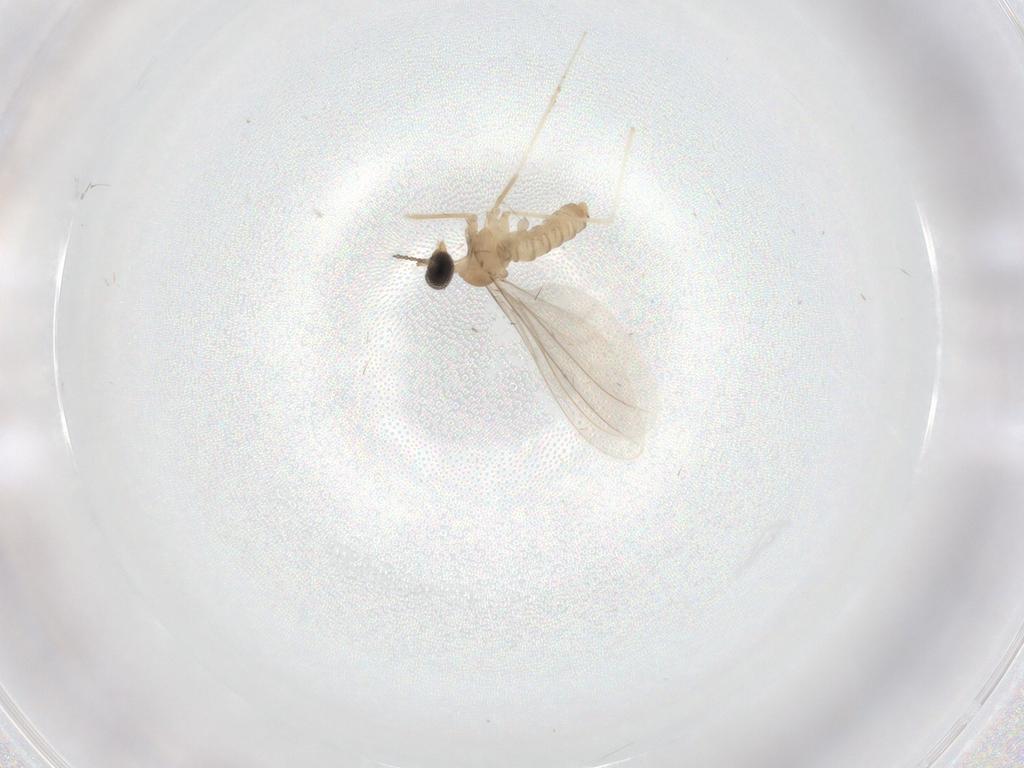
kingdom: Animalia
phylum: Arthropoda
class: Insecta
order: Diptera
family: Cecidomyiidae
